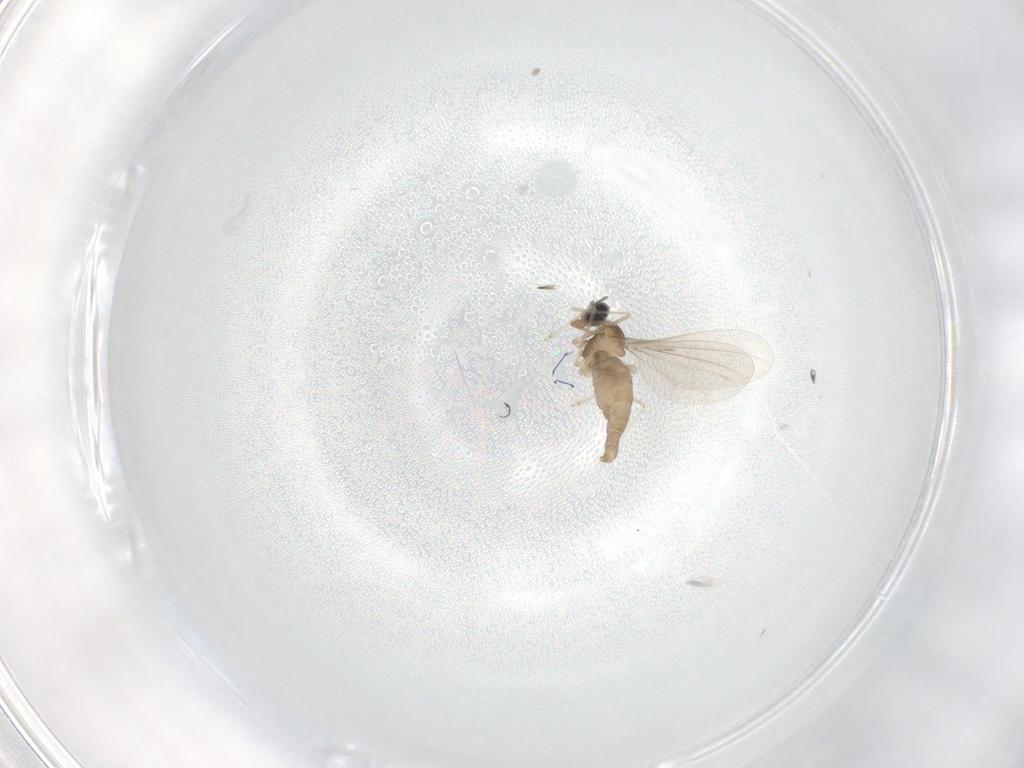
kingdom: Animalia
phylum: Arthropoda
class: Insecta
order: Diptera
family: Chironomidae
